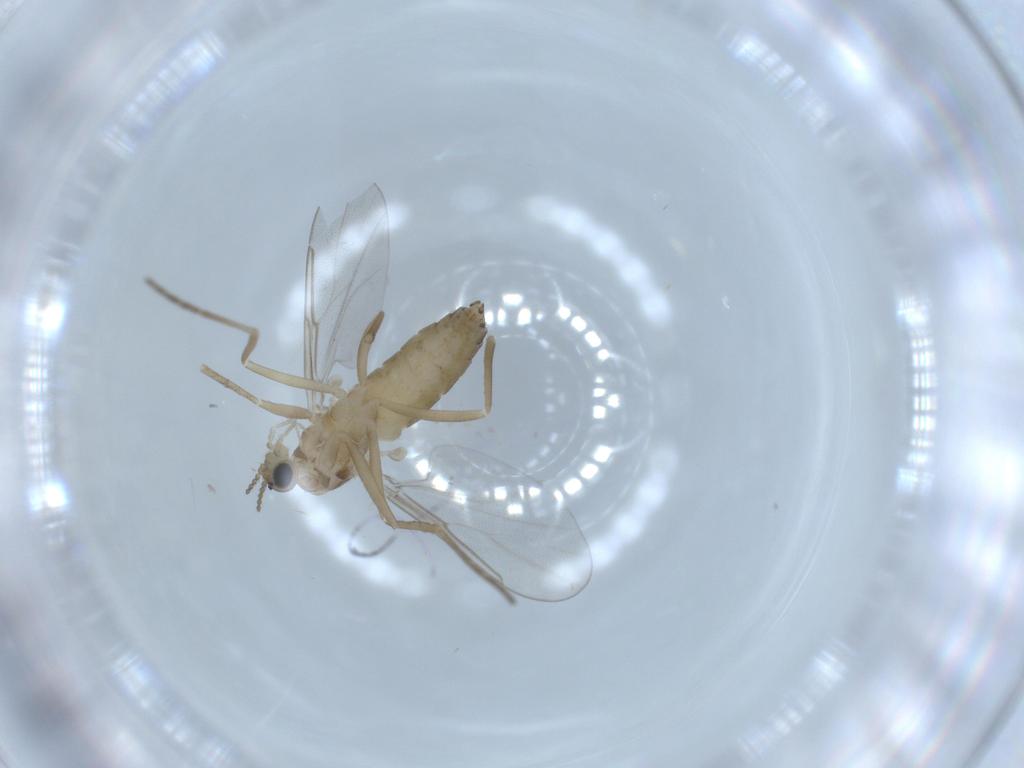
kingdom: Animalia
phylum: Arthropoda
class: Insecta
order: Diptera
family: Cecidomyiidae
